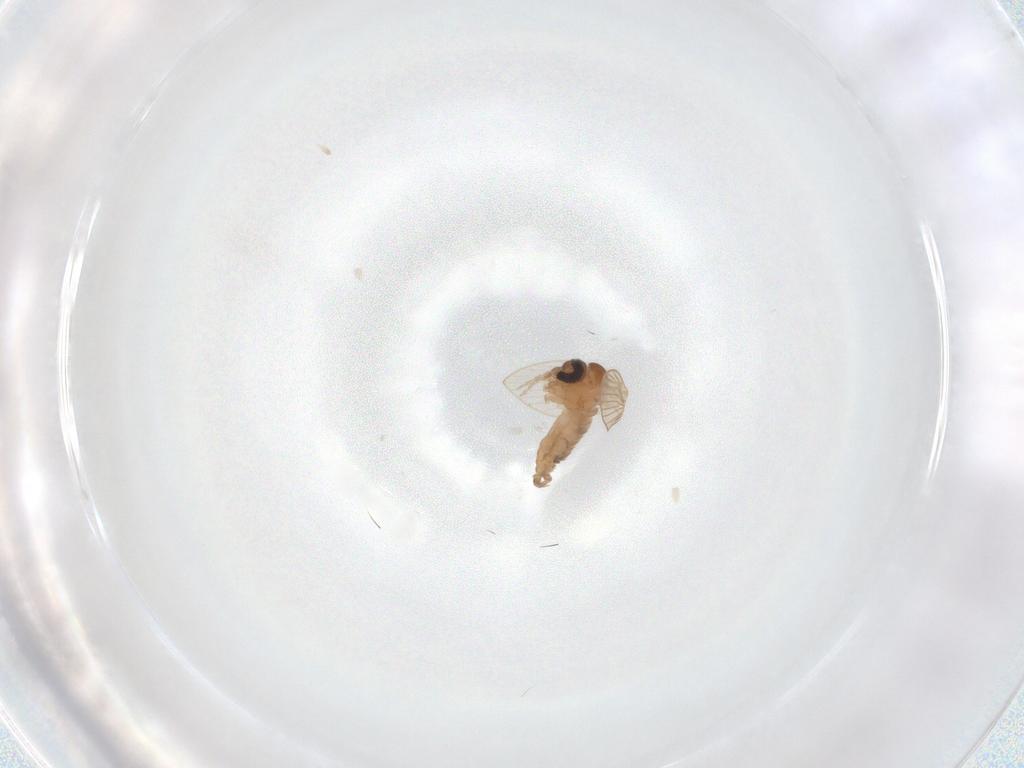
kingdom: Animalia
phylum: Arthropoda
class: Insecta
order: Diptera
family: Psychodidae
